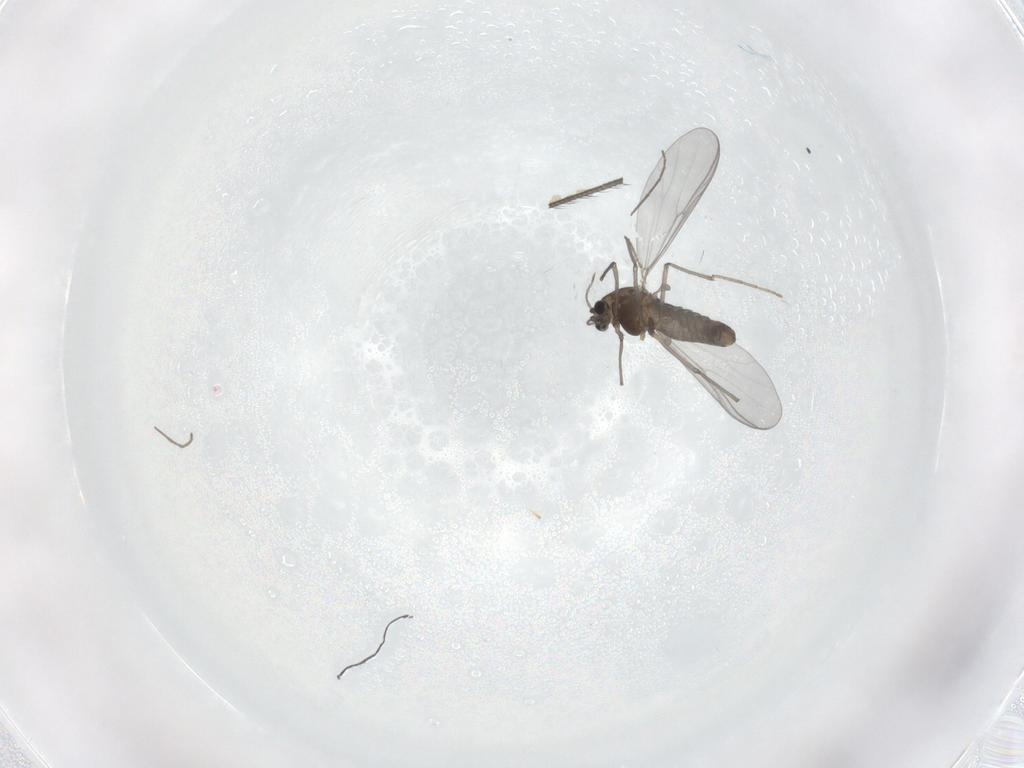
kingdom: Animalia
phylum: Arthropoda
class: Insecta
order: Diptera
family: Chironomidae
